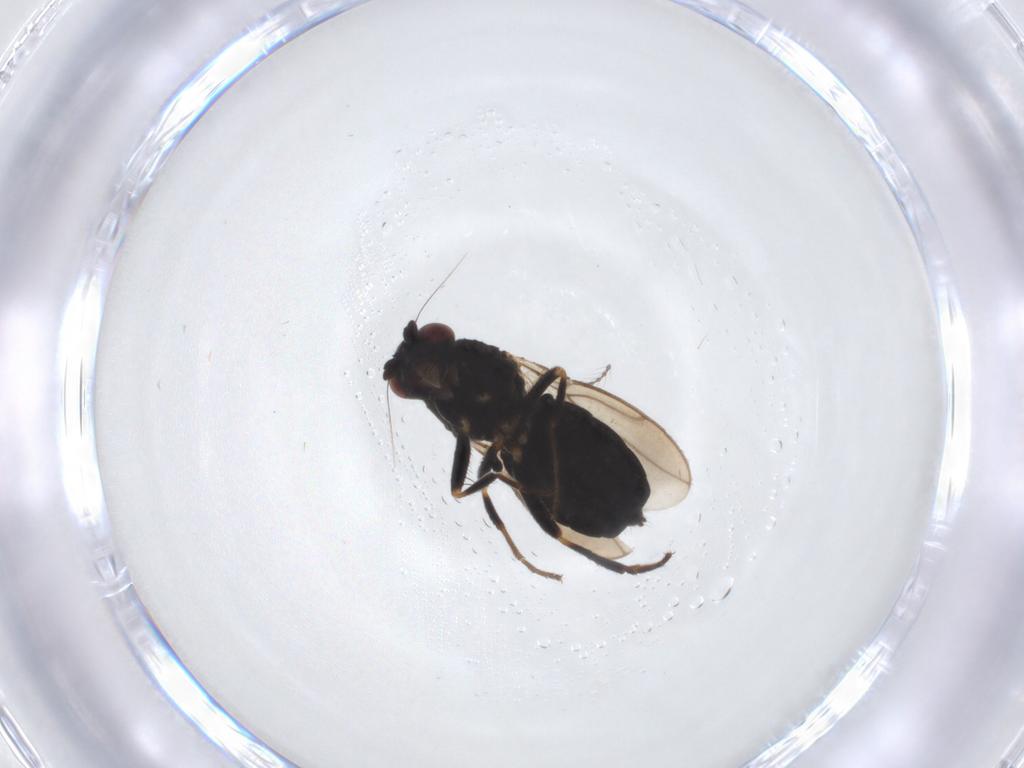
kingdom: Animalia
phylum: Arthropoda
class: Insecta
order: Diptera
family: Sphaeroceridae
